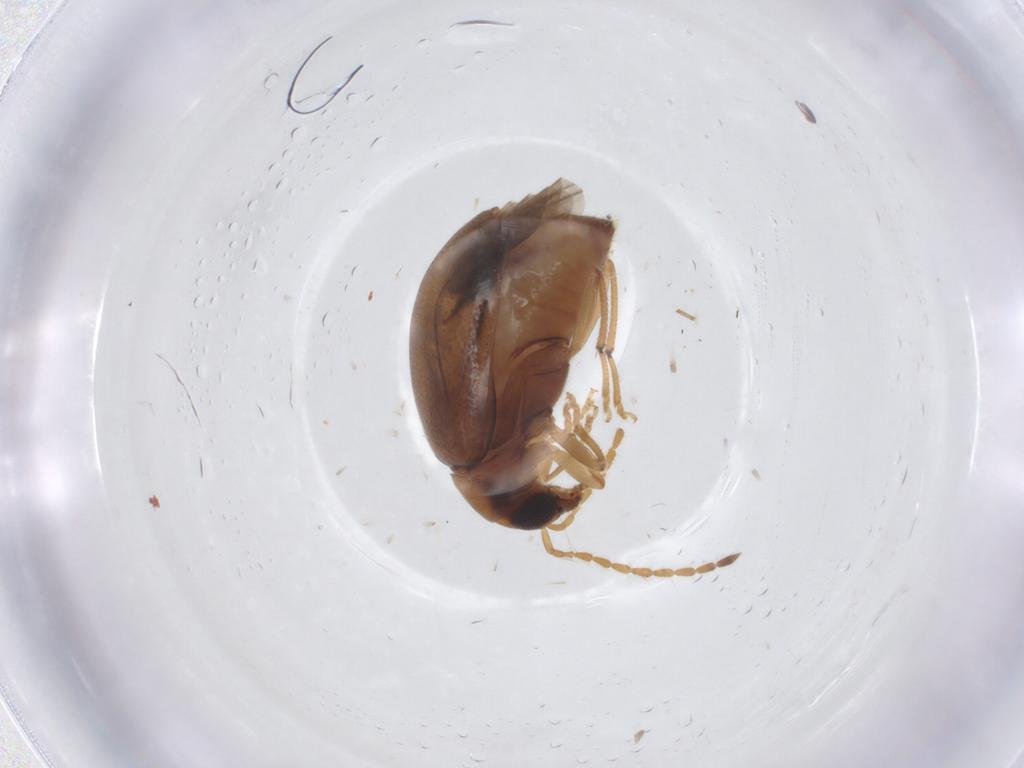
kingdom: Animalia
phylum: Arthropoda
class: Insecta
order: Coleoptera
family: Chrysomelidae
